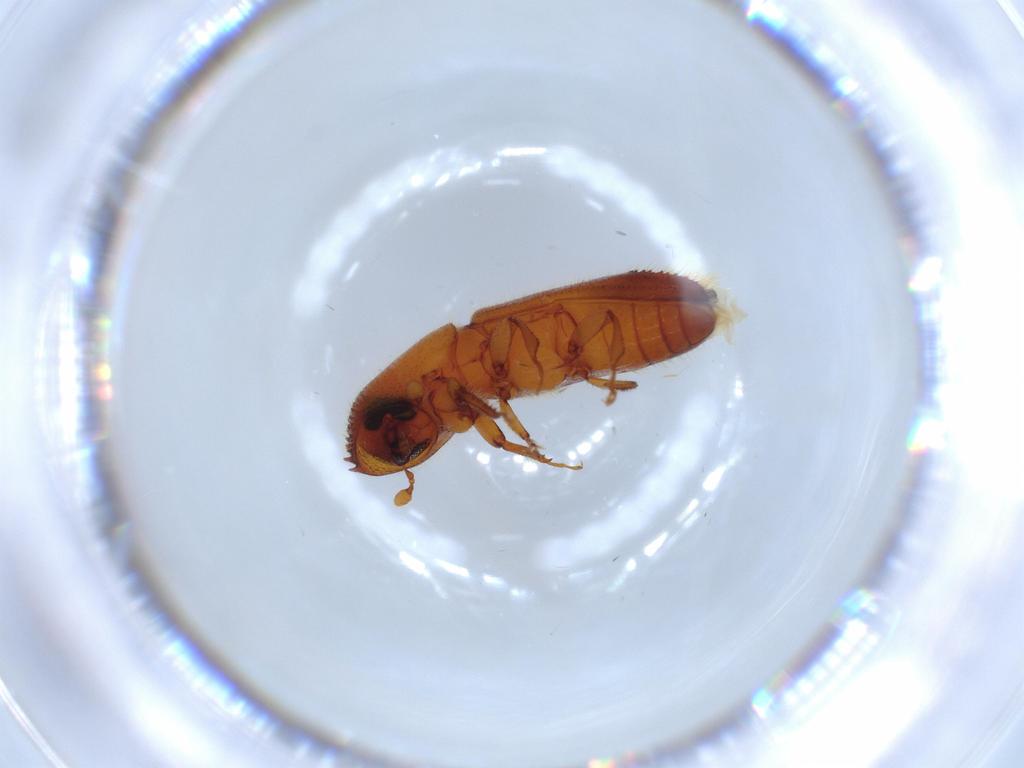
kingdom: Animalia
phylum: Arthropoda
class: Insecta
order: Coleoptera
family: Curculionidae
